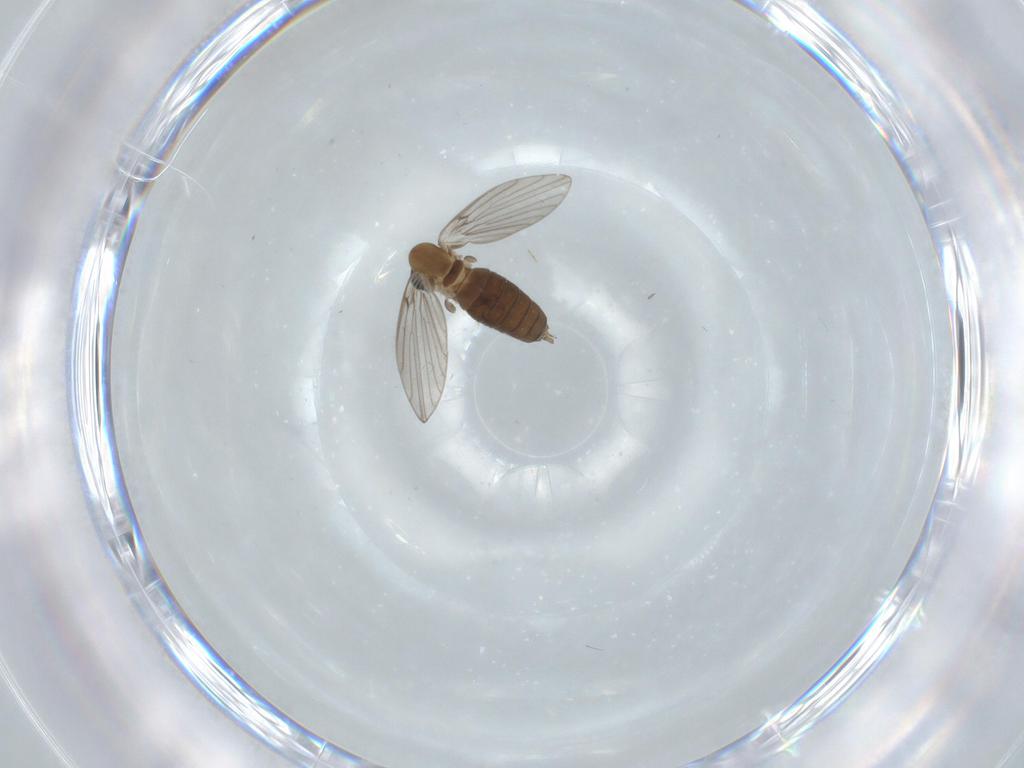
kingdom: Animalia
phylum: Arthropoda
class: Insecta
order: Diptera
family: Muscidae
